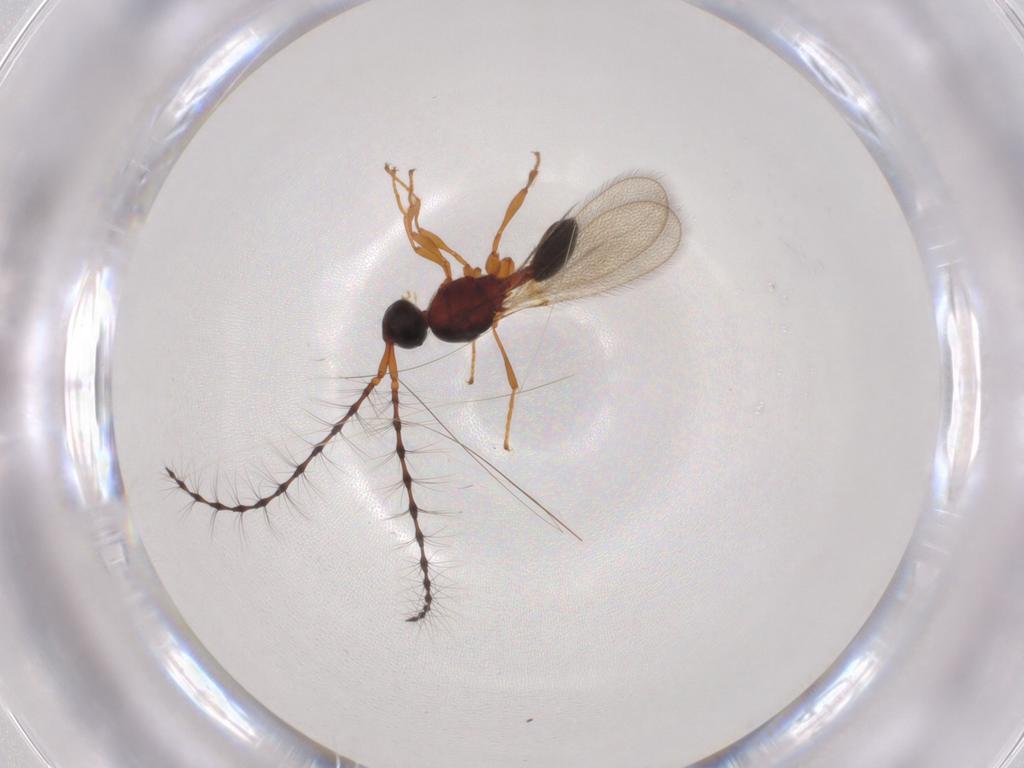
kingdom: Animalia
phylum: Arthropoda
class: Insecta
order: Hymenoptera
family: Diapriidae
